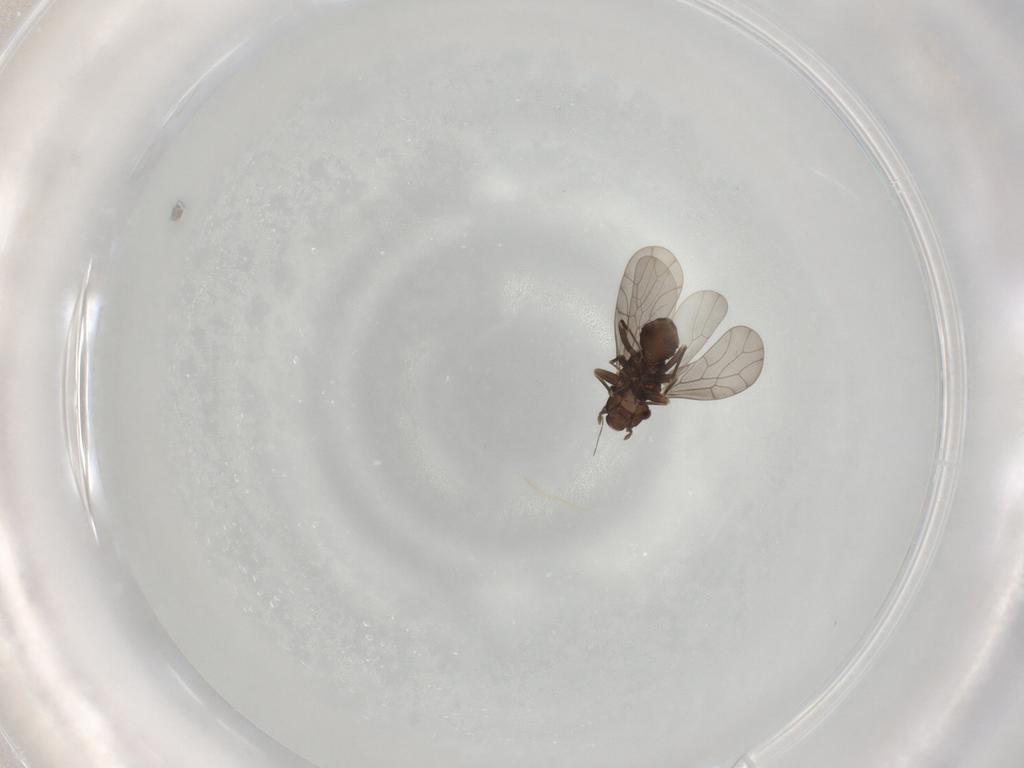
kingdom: Animalia
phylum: Arthropoda
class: Insecta
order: Psocodea
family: Lepidopsocidae
